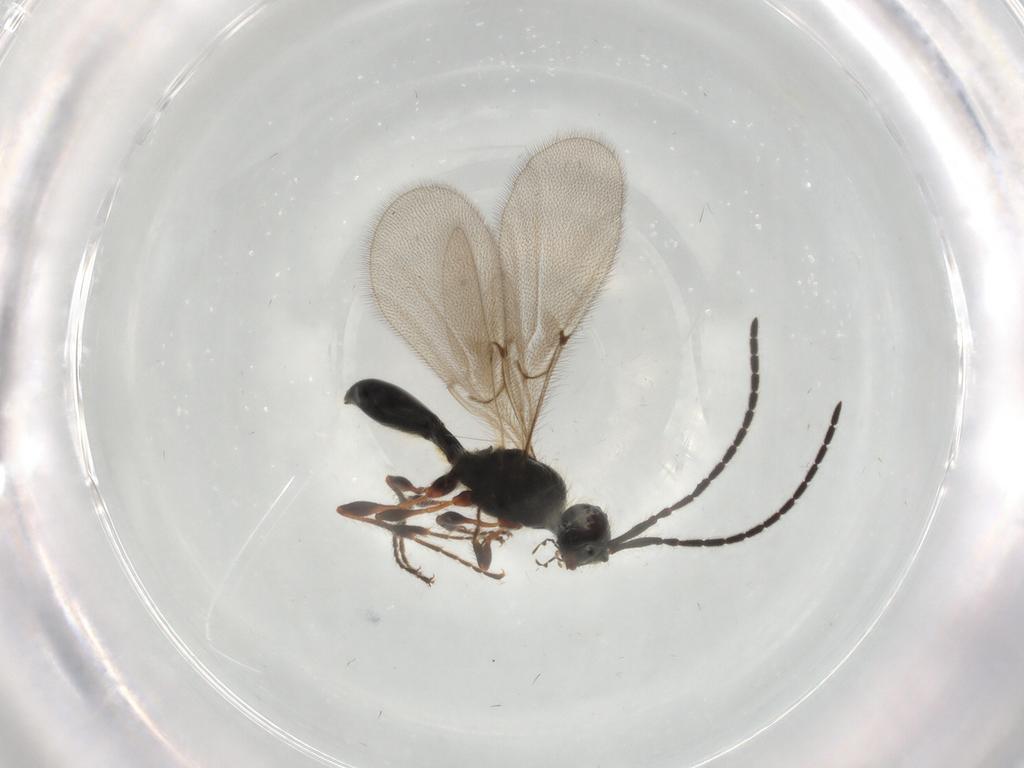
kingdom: Animalia
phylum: Arthropoda
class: Insecta
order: Hymenoptera
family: Diapriidae
